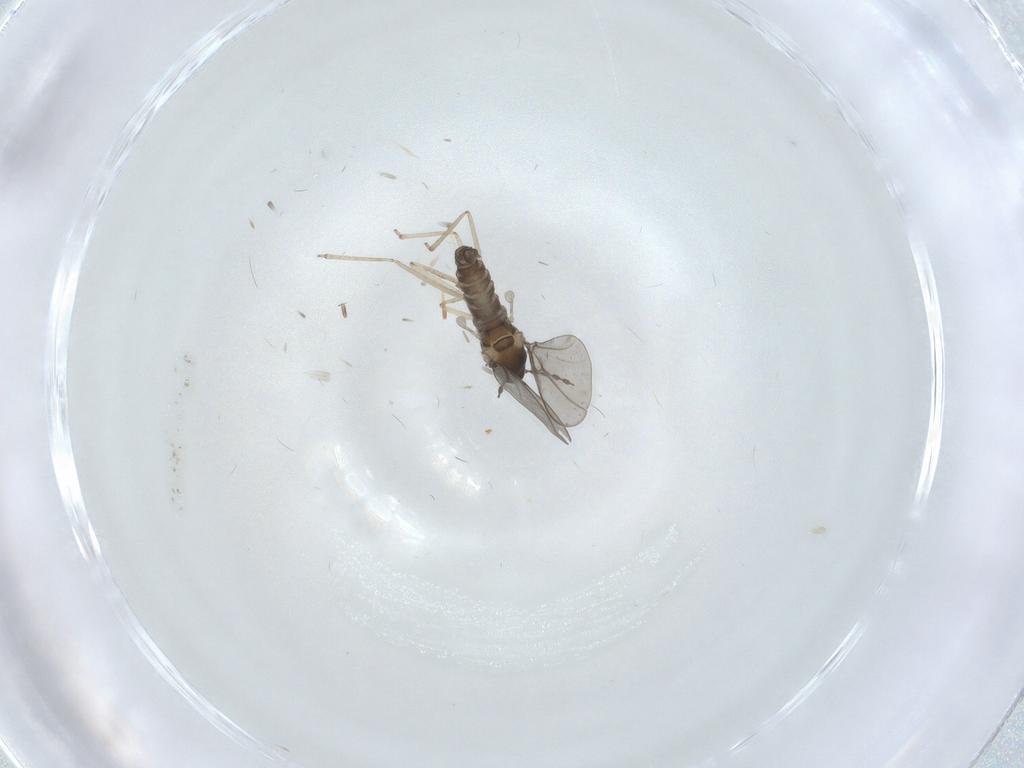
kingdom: Animalia
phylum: Arthropoda
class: Insecta
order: Diptera
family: Cecidomyiidae
